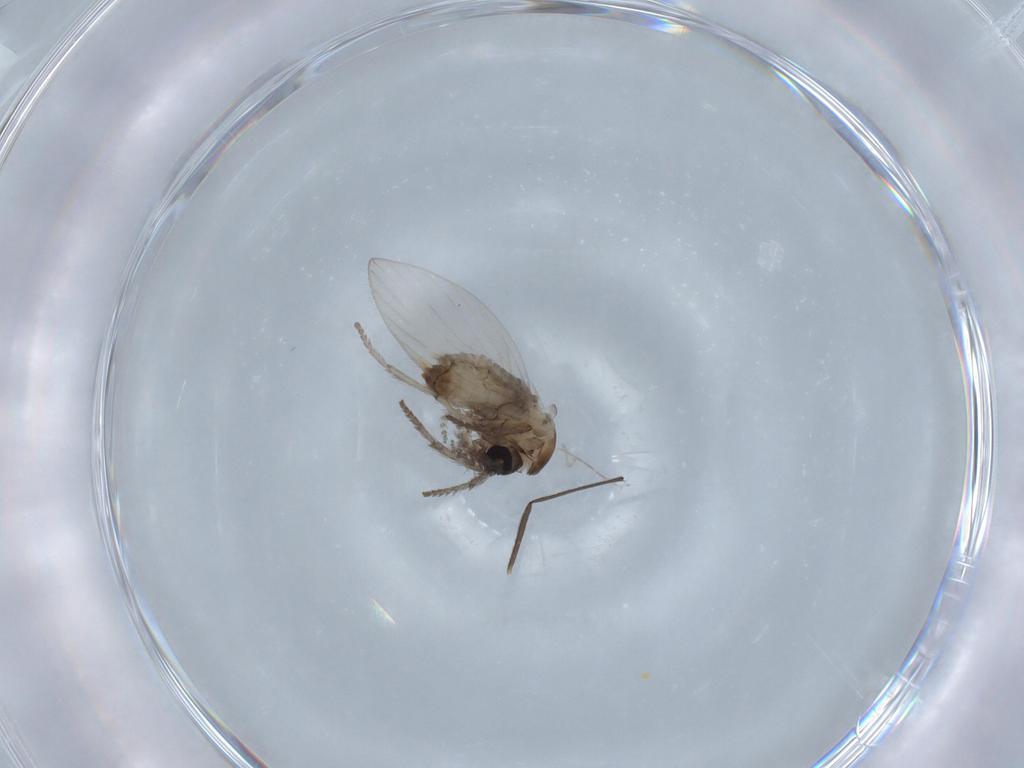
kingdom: Animalia
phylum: Arthropoda
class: Insecta
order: Diptera
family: Psychodidae
